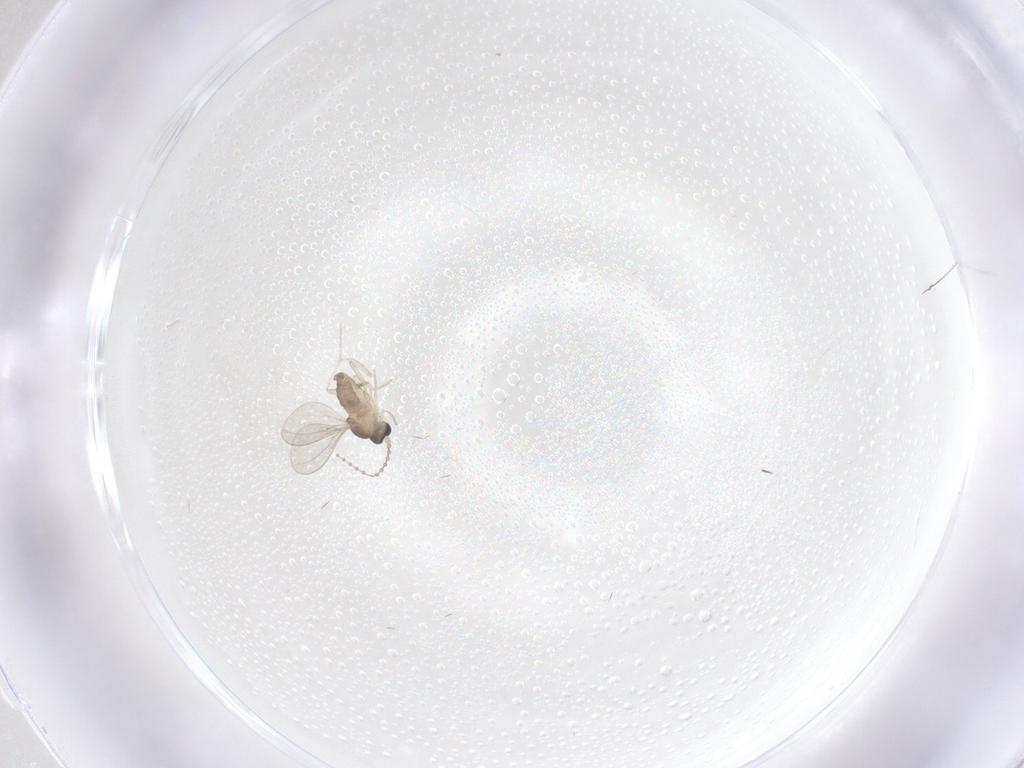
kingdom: Animalia
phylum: Arthropoda
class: Insecta
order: Diptera
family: Cecidomyiidae
